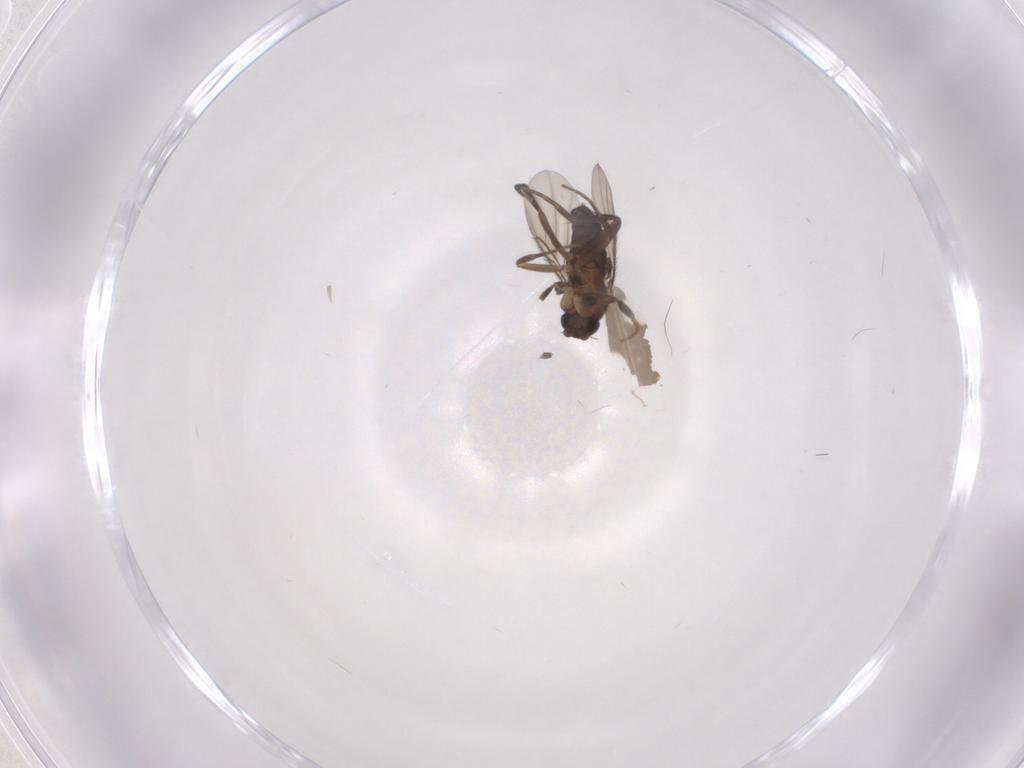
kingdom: Animalia
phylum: Arthropoda
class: Insecta
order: Diptera
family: Phoridae
